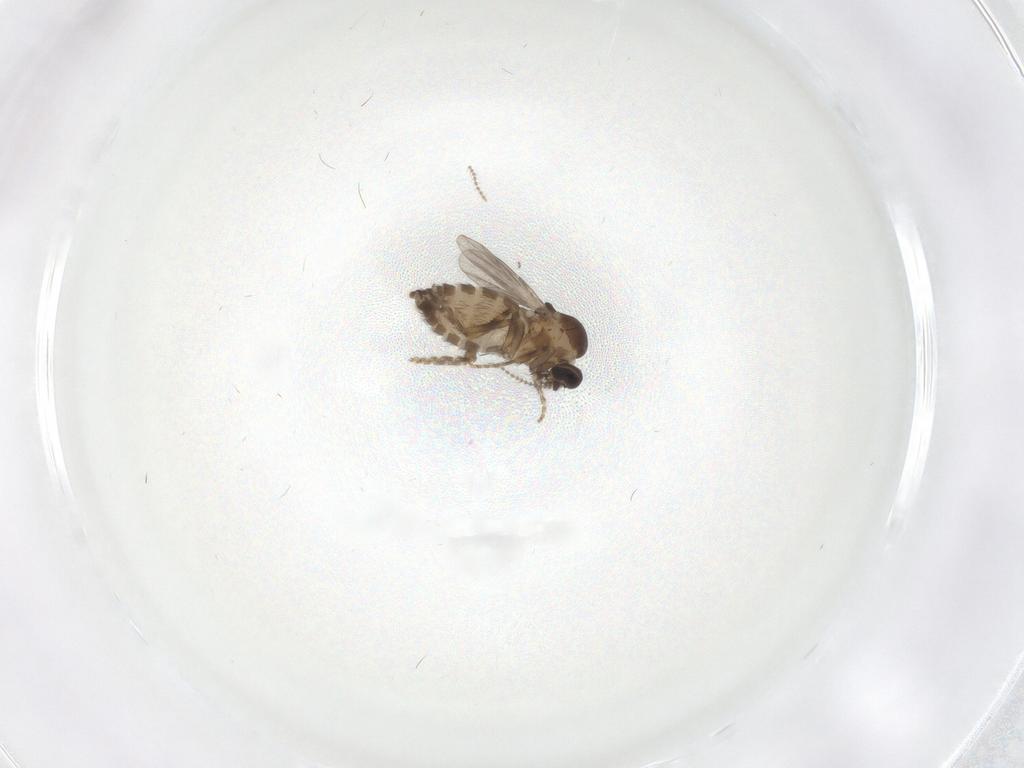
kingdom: Animalia
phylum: Arthropoda
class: Insecta
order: Diptera
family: Ceratopogonidae
